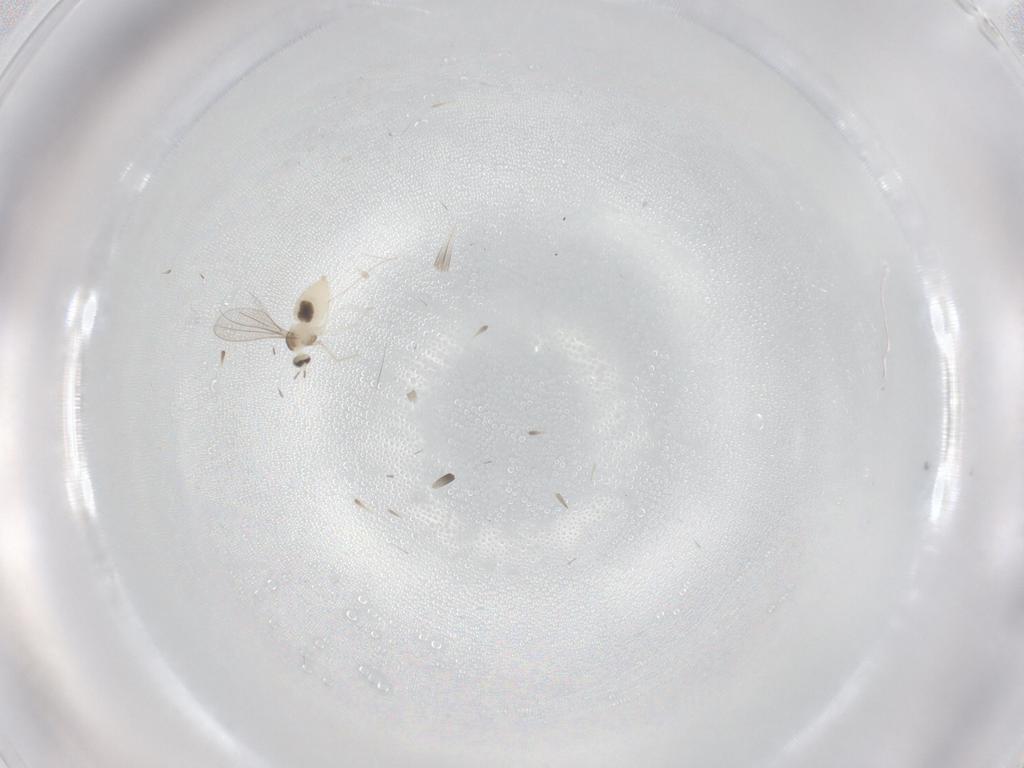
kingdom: Animalia
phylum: Arthropoda
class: Insecta
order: Diptera
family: Cecidomyiidae
